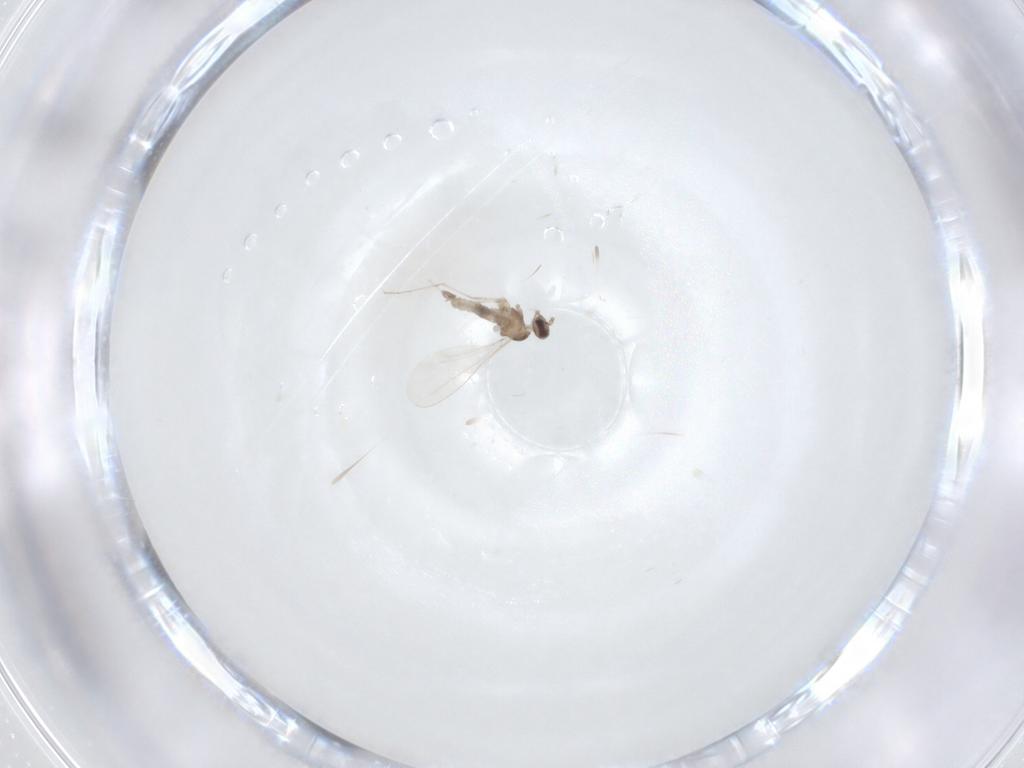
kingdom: Animalia
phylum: Arthropoda
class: Insecta
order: Diptera
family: Cecidomyiidae
